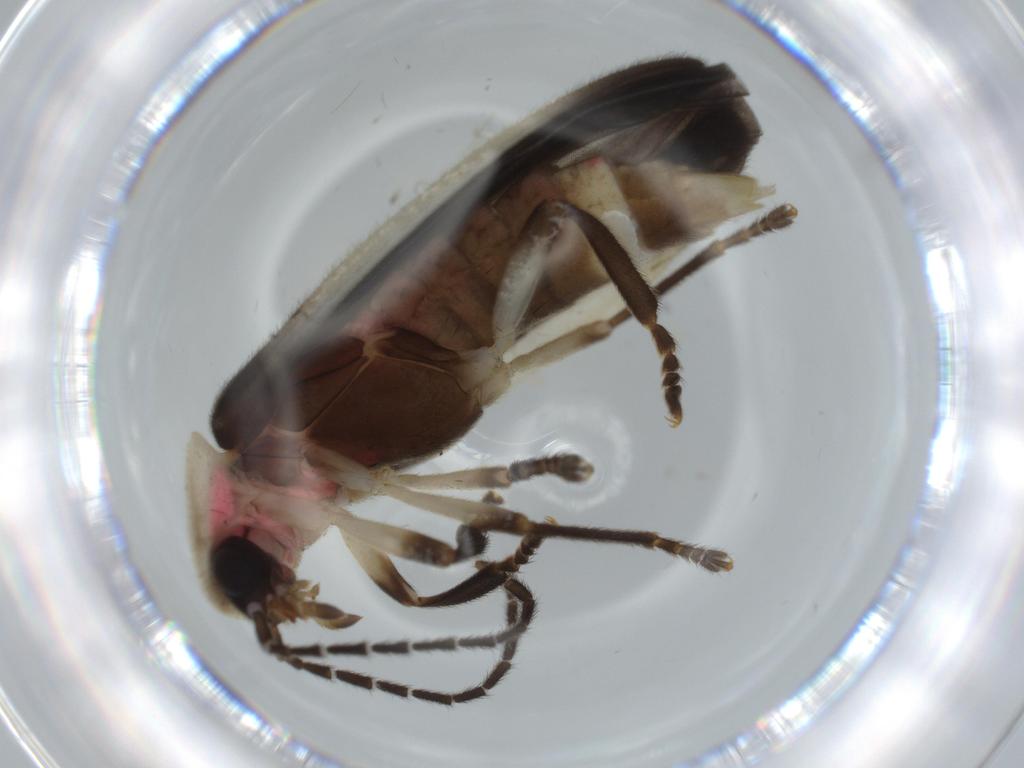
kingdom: Animalia
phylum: Arthropoda
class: Insecta
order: Coleoptera
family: Lampyridae
